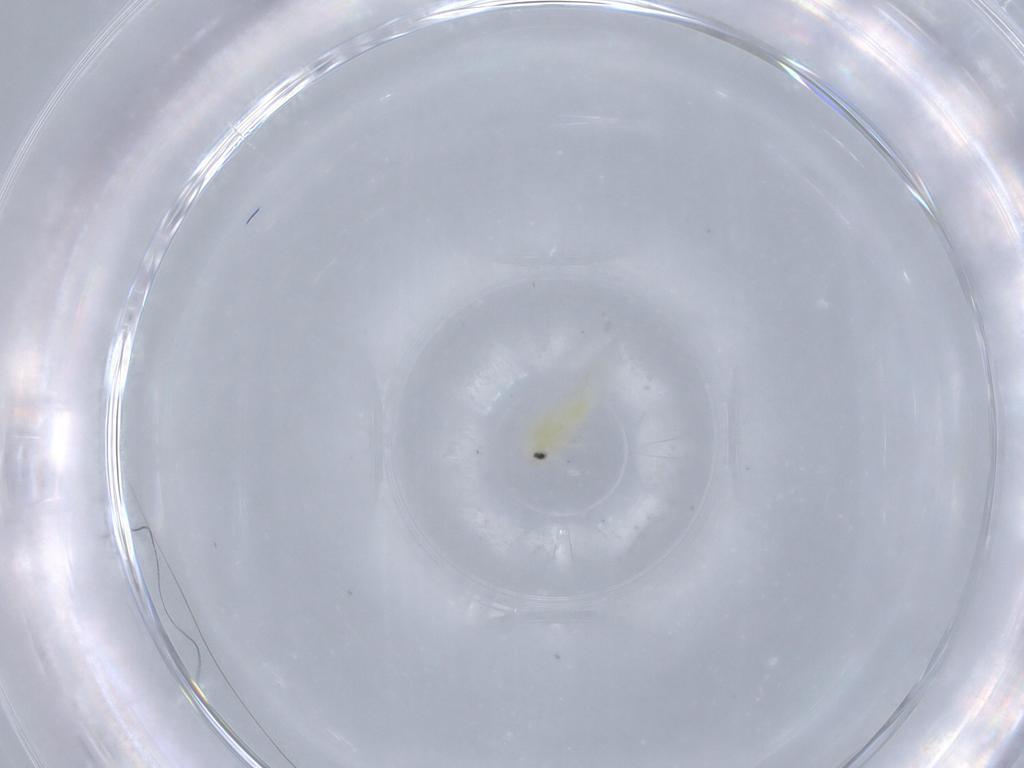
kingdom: Animalia
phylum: Arthropoda
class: Insecta
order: Hemiptera
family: Aleyrodidae
